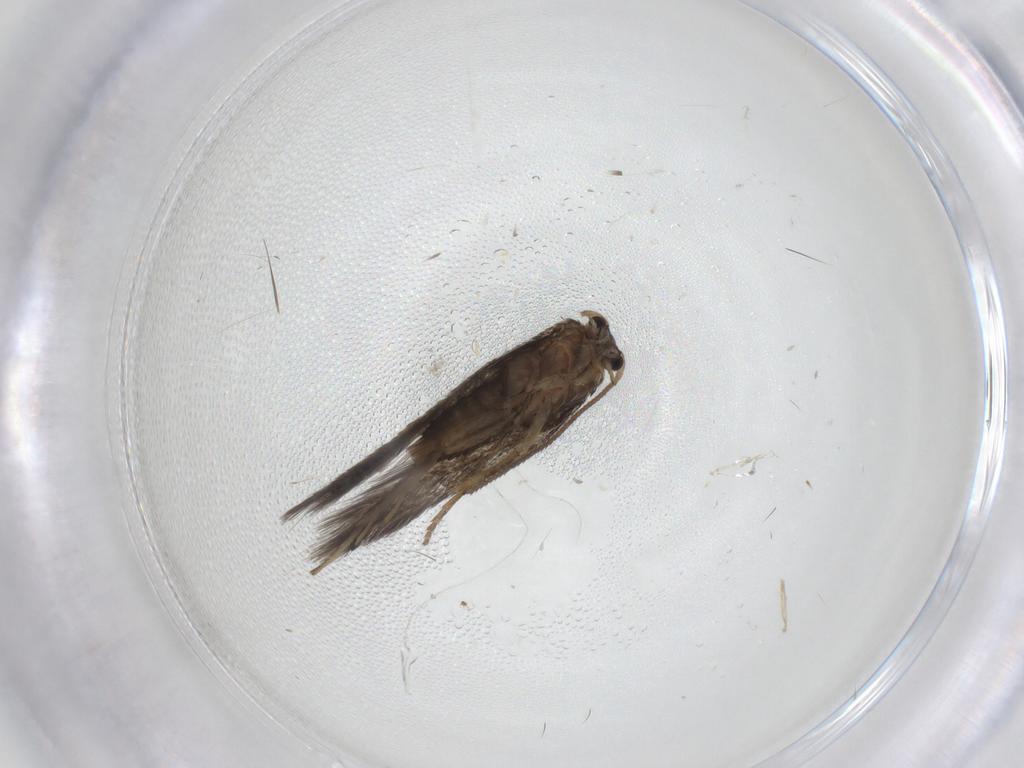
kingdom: Animalia
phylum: Arthropoda
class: Insecta
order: Lepidoptera
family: Nepticulidae
